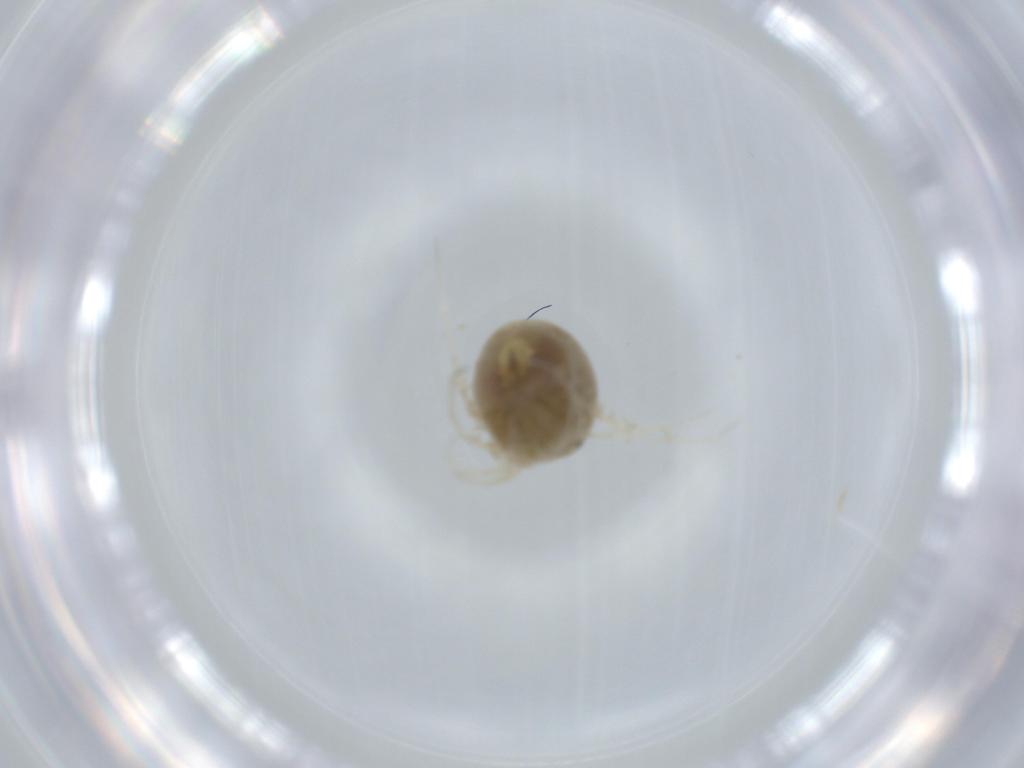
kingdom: Animalia
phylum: Arthropoda
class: Arachnida
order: Trombidiformes
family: Hygrobatidae
